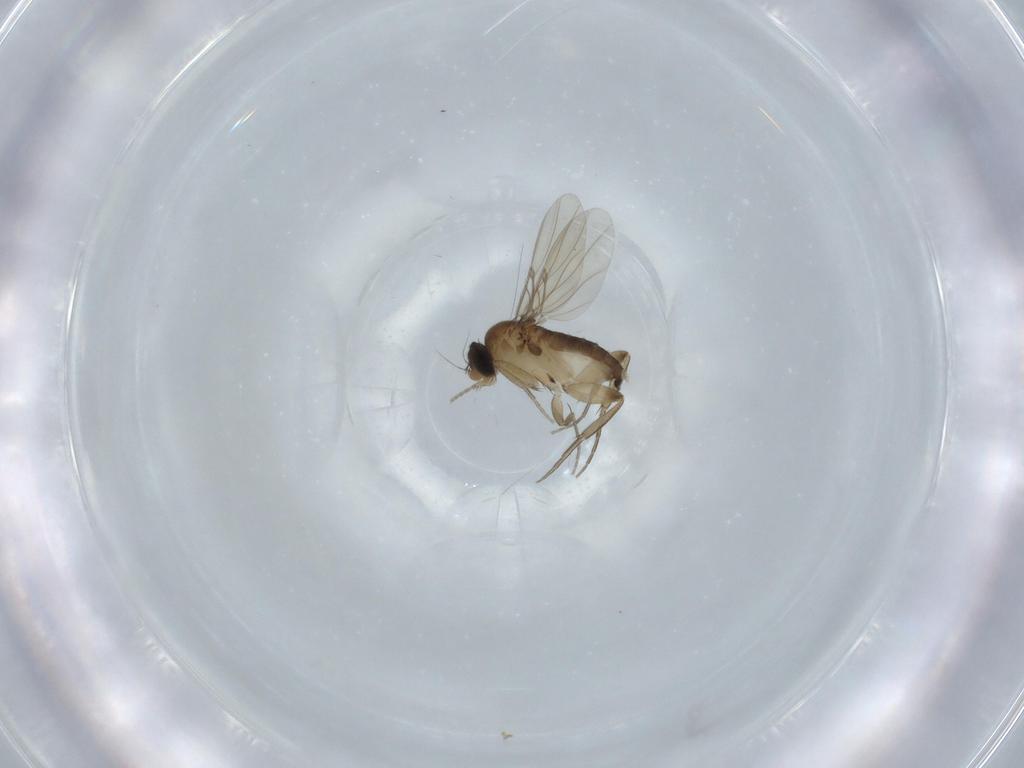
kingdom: Animalia
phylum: Arthropoda
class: Insecta
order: Diptera
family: Phoridae
